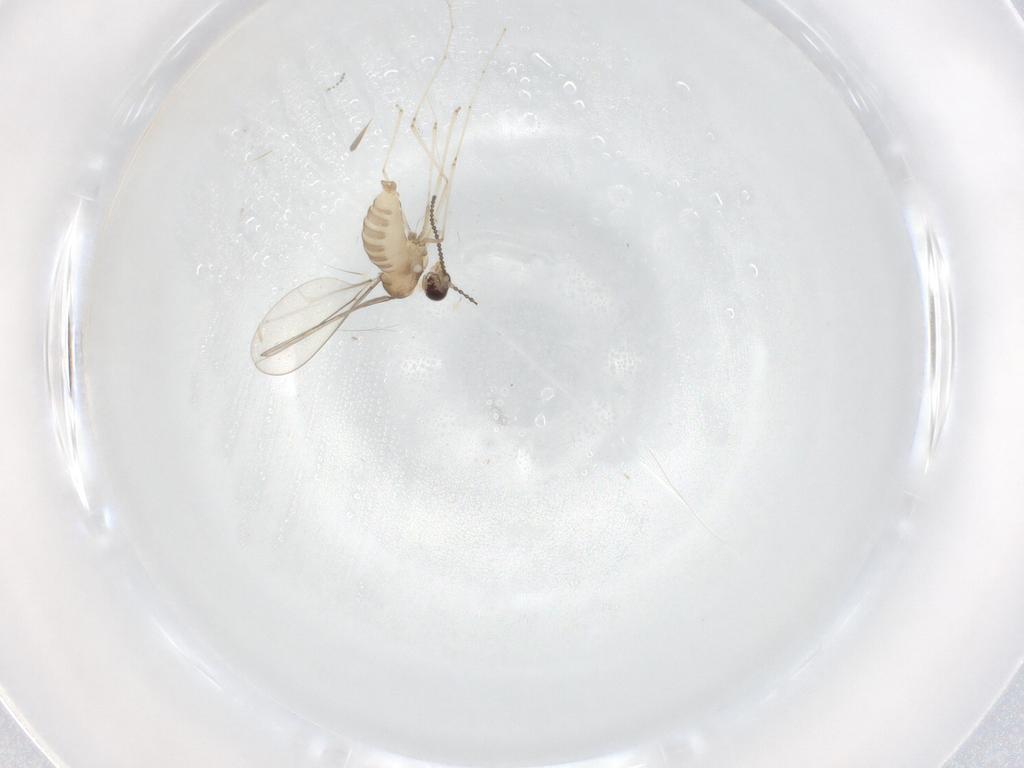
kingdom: Animalia
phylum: Arthropoda
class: Insecta
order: Diptera
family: Cecidomyiidae
